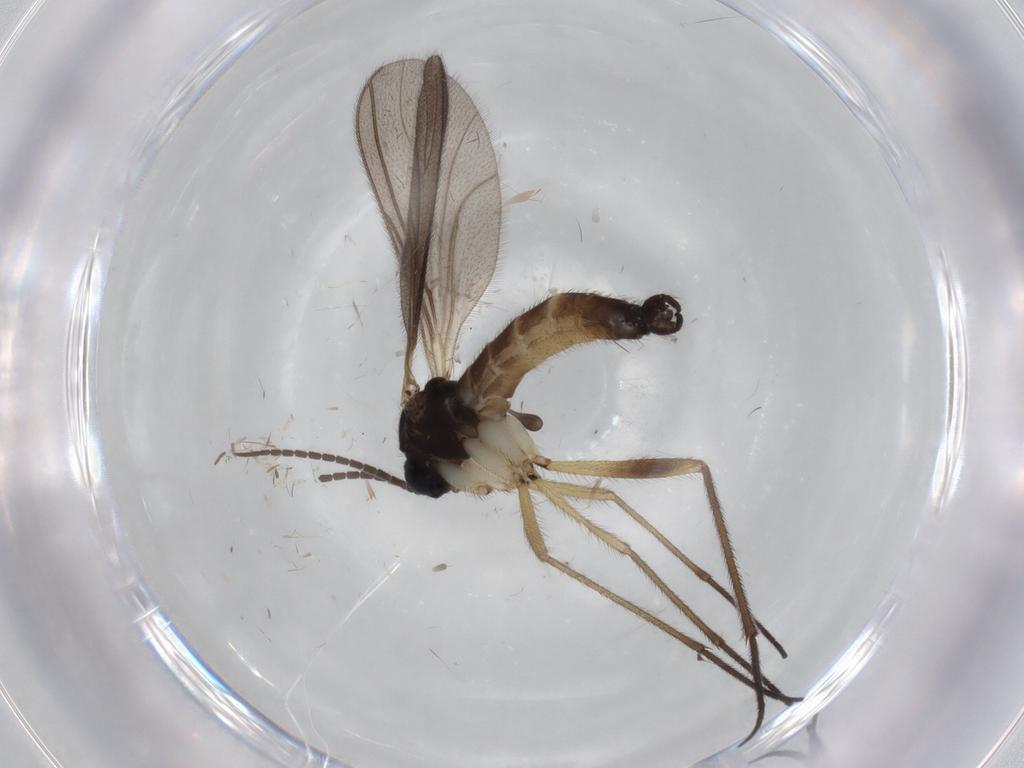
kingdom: Animalia
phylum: Arthropoda
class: Insecta
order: Diptera
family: Sciaridae
